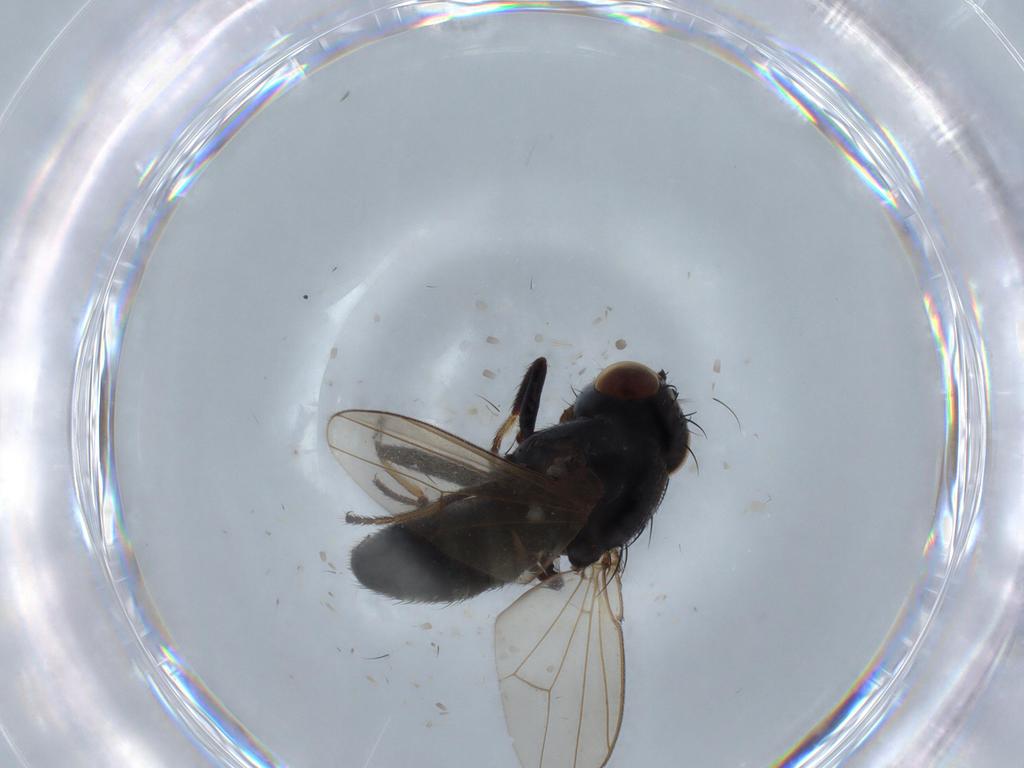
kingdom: Animalia
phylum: Arthropoda
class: Insecta
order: Diptera
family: Ephydridae
